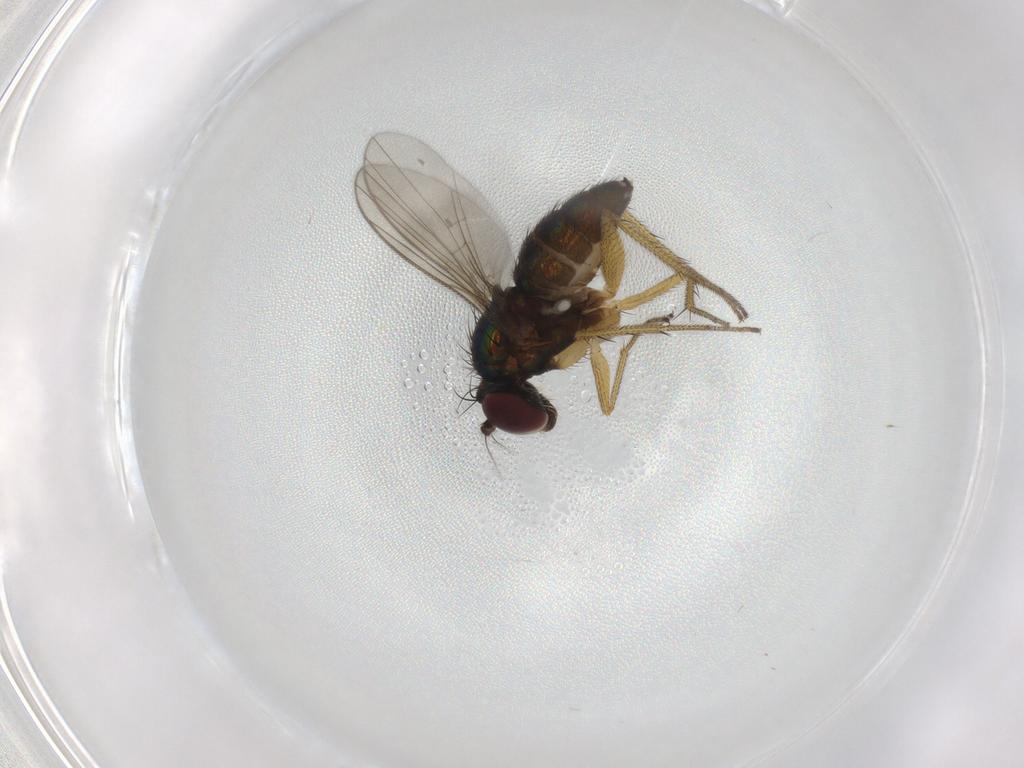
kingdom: Animalia
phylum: Arthropoda
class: Insecta
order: Diptera
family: Dolichopodidae
